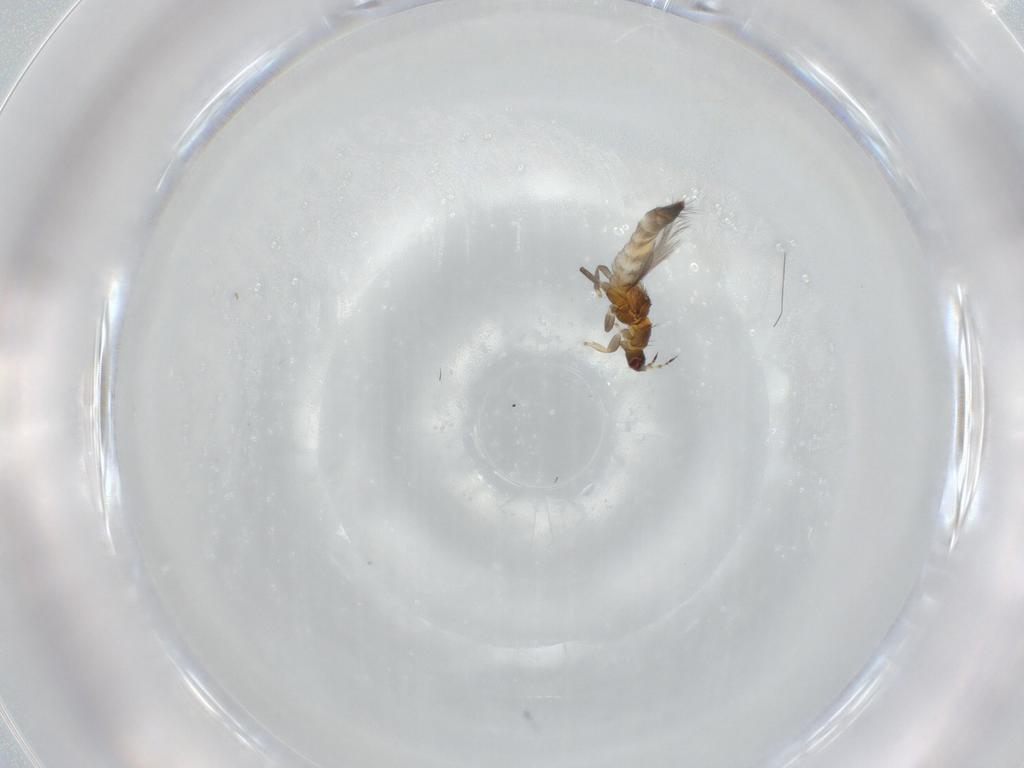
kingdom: Animalia
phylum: Arthropoda
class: Insecta
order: Thysanoptera
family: Thripidae
